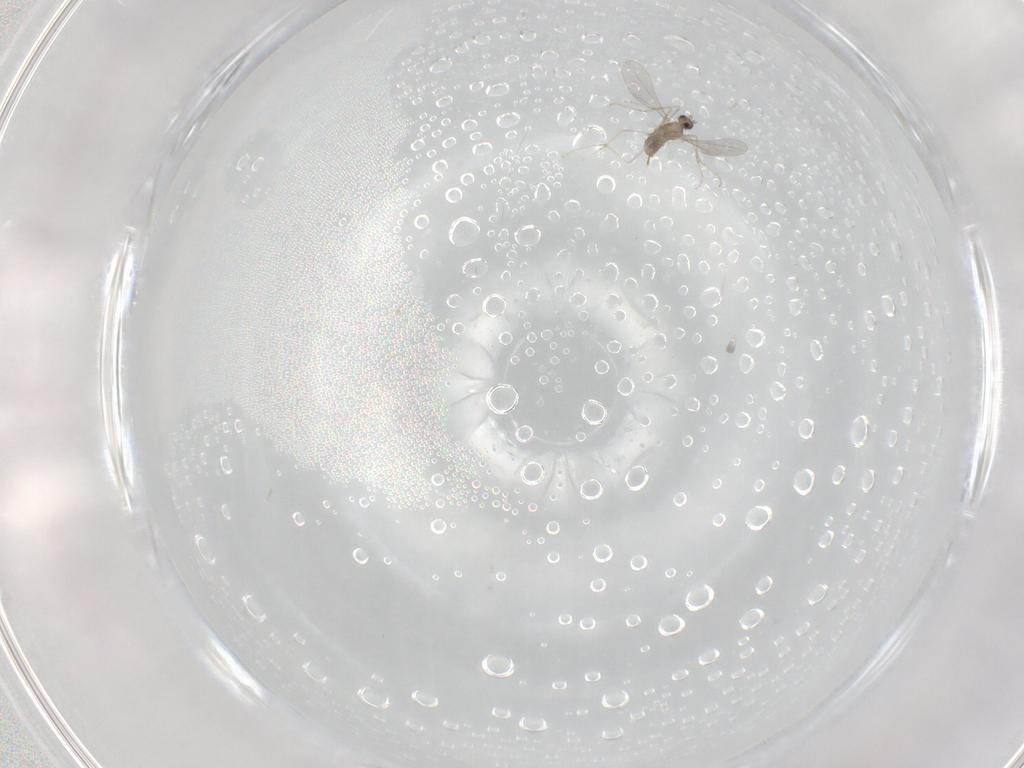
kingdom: Animalia
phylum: Arthropoda
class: Insecta
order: Diptera
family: Cecidomyiidae
